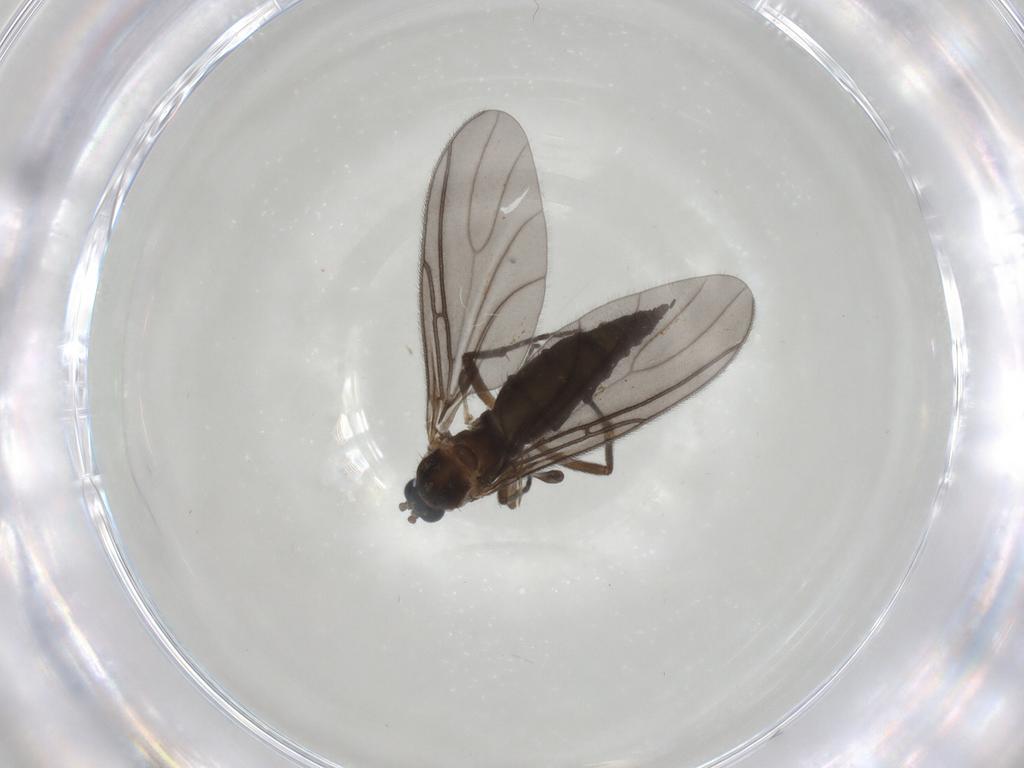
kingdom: Animalia
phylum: Arthropoda
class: Insecta
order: Diptera
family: Sciaridae
